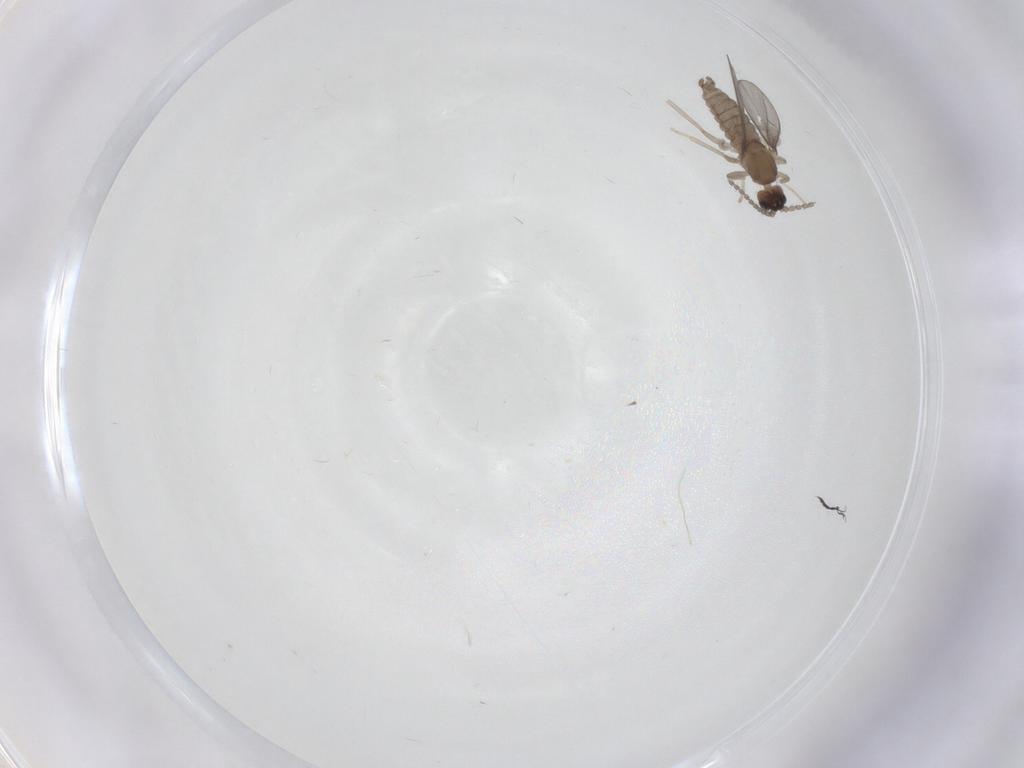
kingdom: Animalia
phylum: Arthropoda
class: Insecta
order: Diptera
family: Cecidomyiidae
